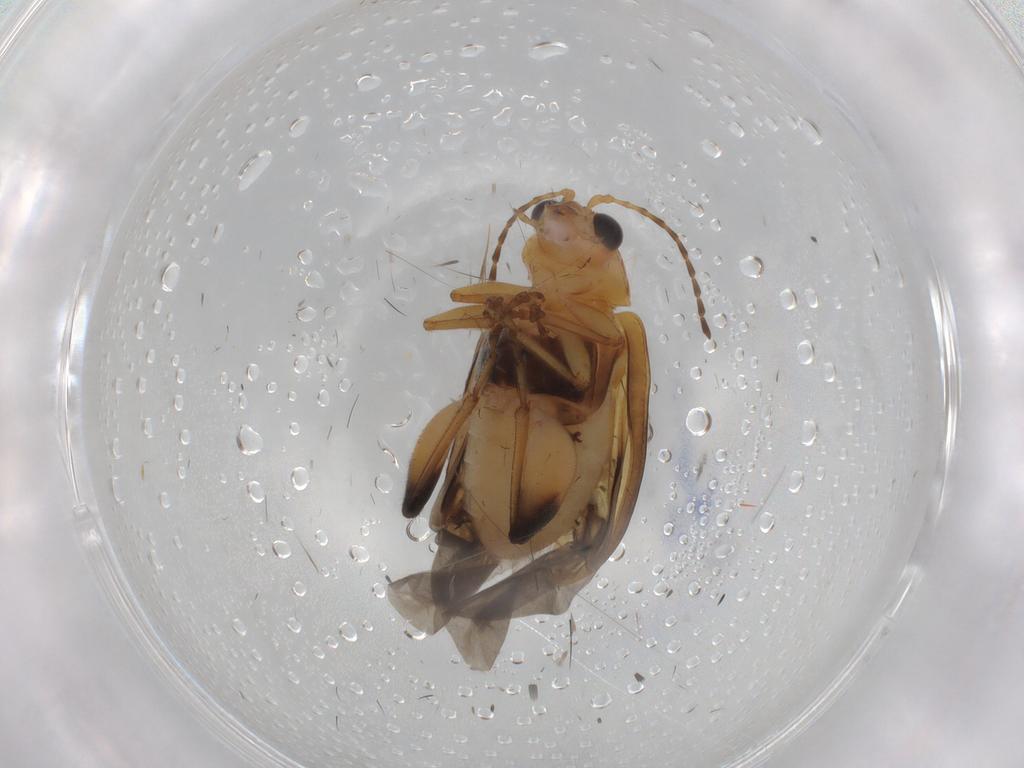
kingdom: Animalia
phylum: Arthropoda
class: Insecta
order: Coleoptera
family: Chrysomelidae
